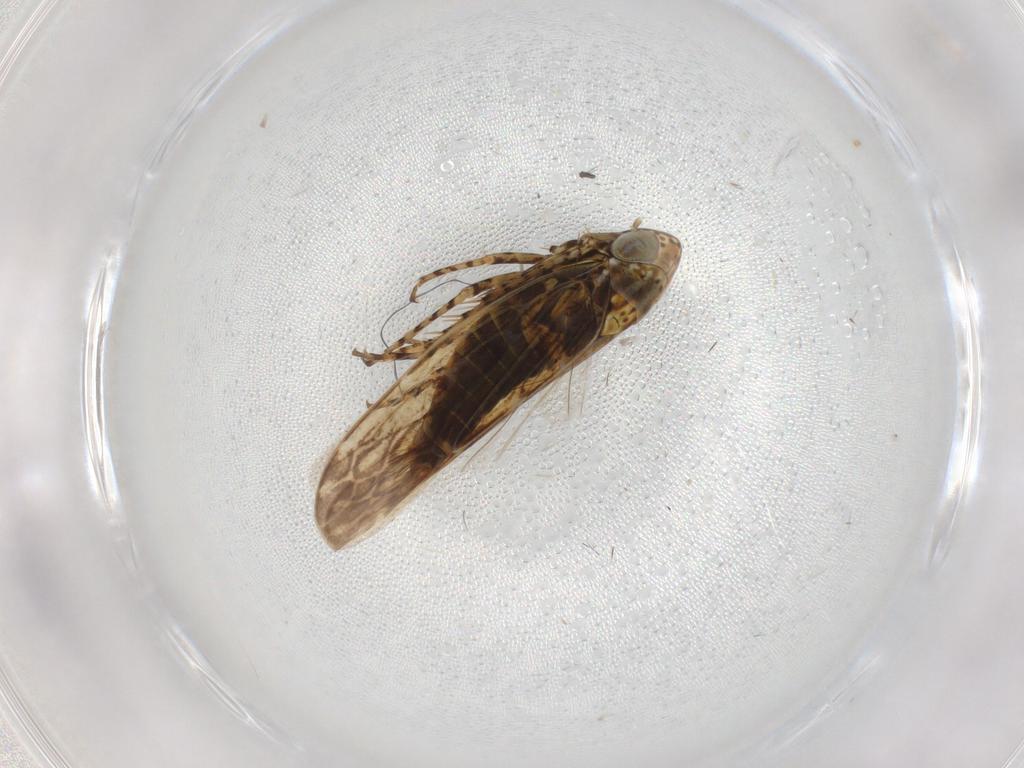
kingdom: Animalia
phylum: Arthropoda
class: Insecta
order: Hemiptera
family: Cicadellidae
